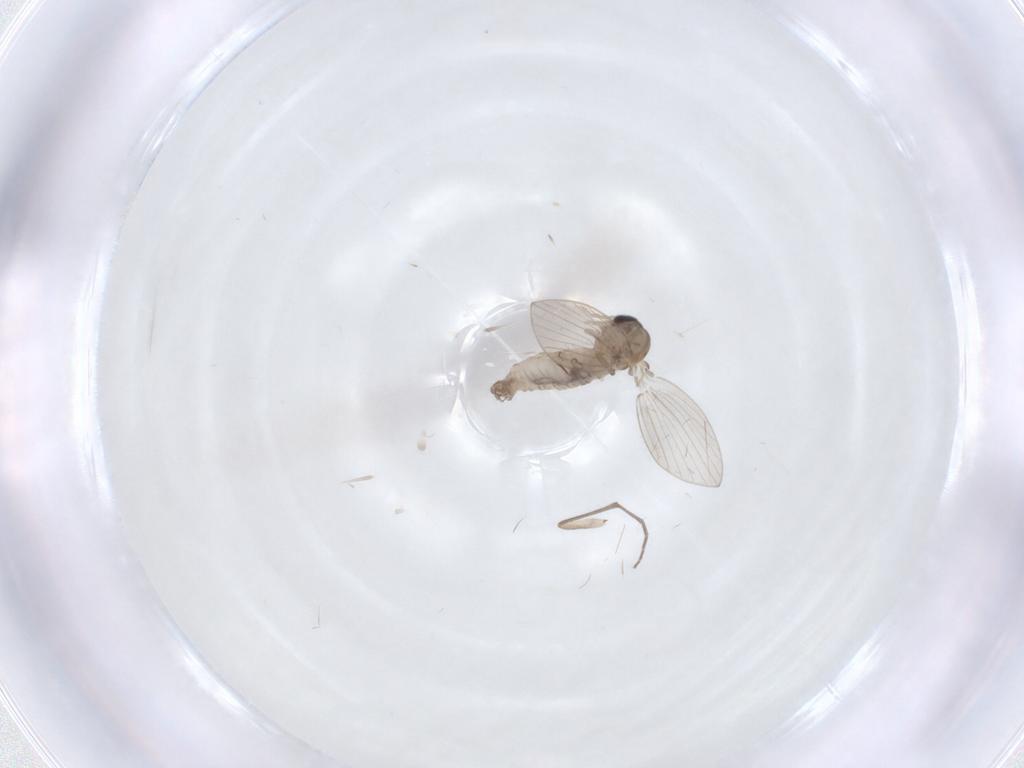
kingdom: Animalia
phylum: Arthropoda
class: Insecta
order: Diptera
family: Psychodidae
